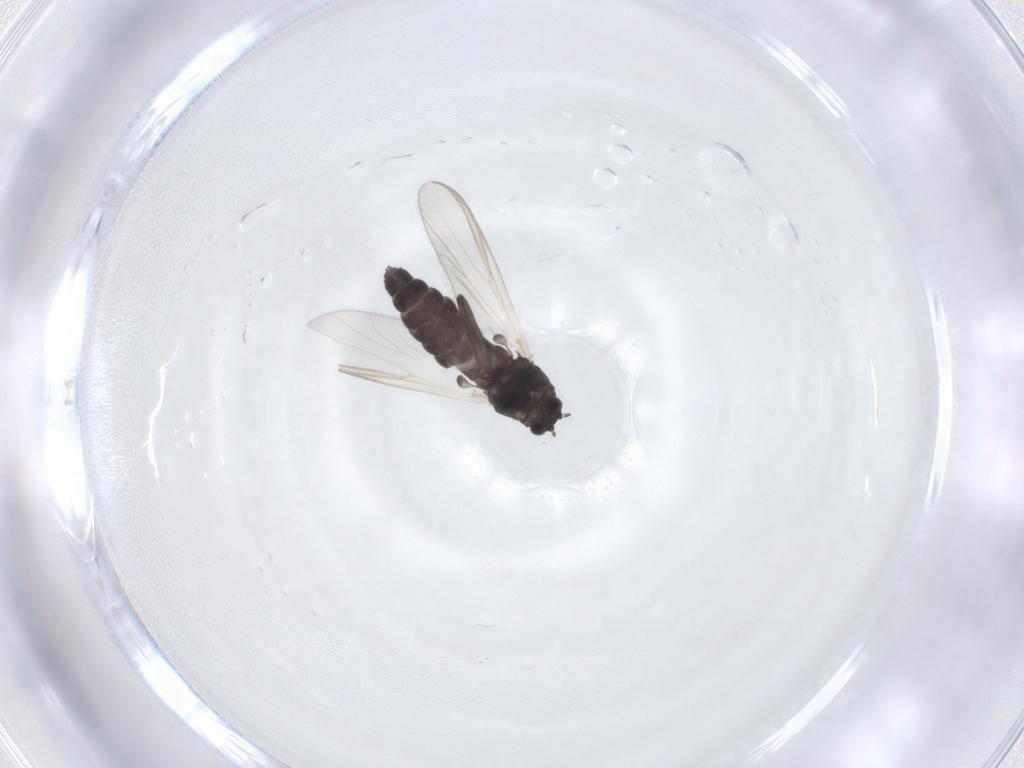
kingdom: Animalia
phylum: Arthropoda
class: Insecta
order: Diptera
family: Chironomidae
